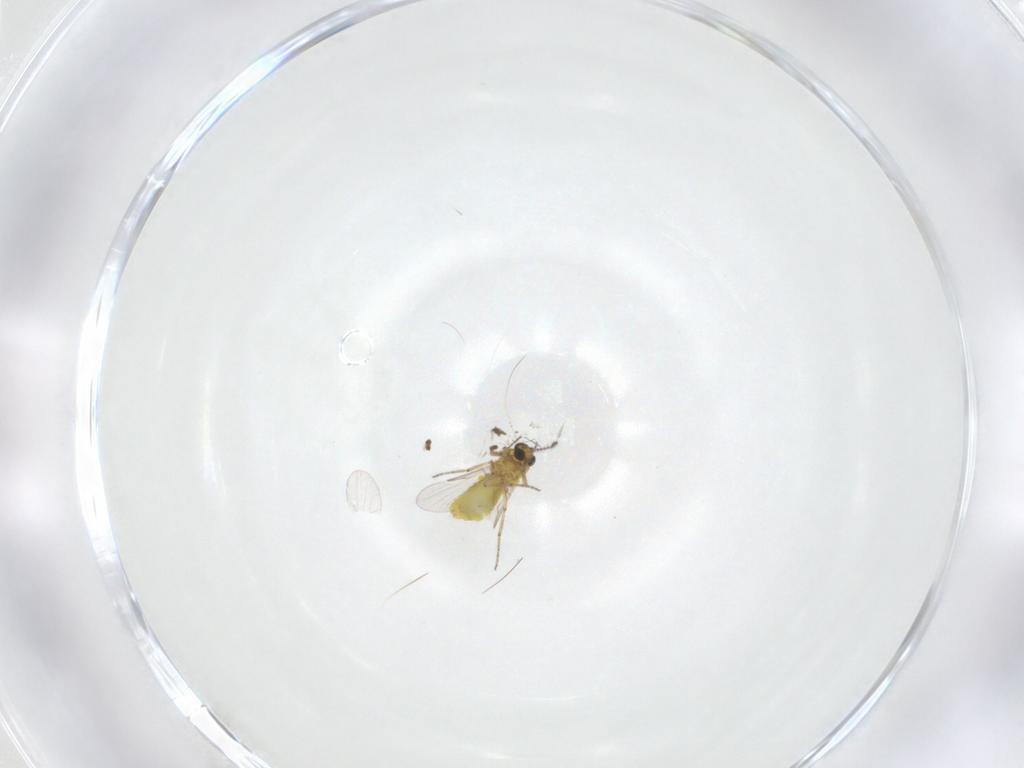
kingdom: Animalia
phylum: Arthropoda
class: Insecta
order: Diptera
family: Ceratopogonidae
